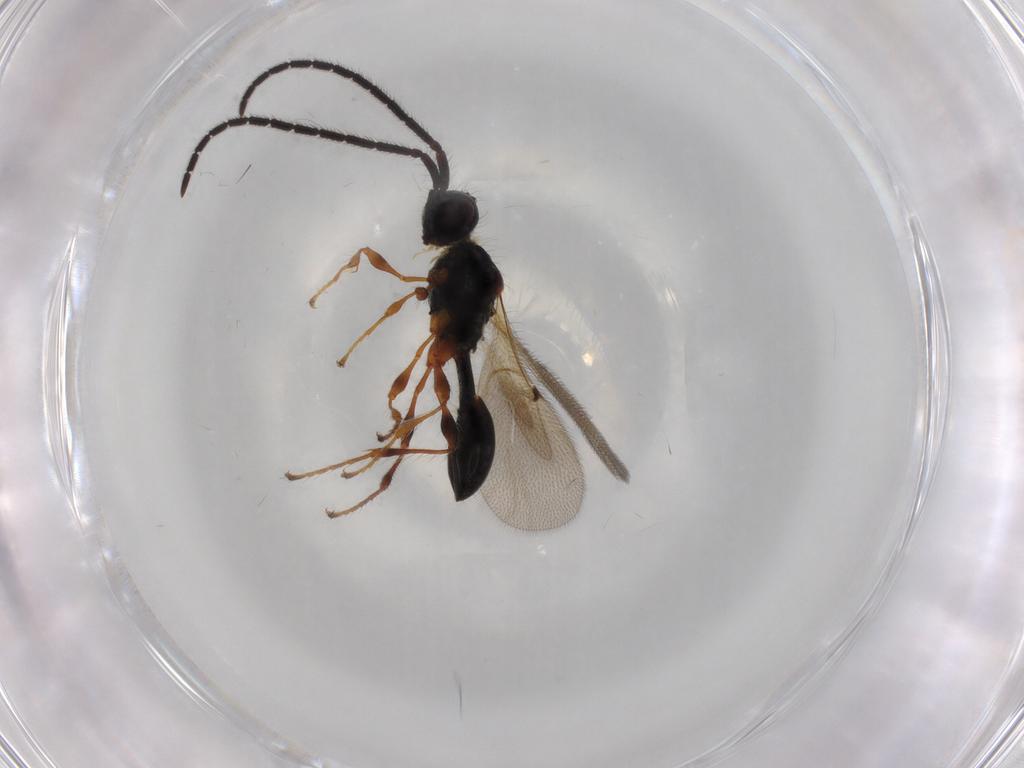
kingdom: Animalia
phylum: Arthropoda
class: Insecta
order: Hymenoptera
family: Diapriidae
